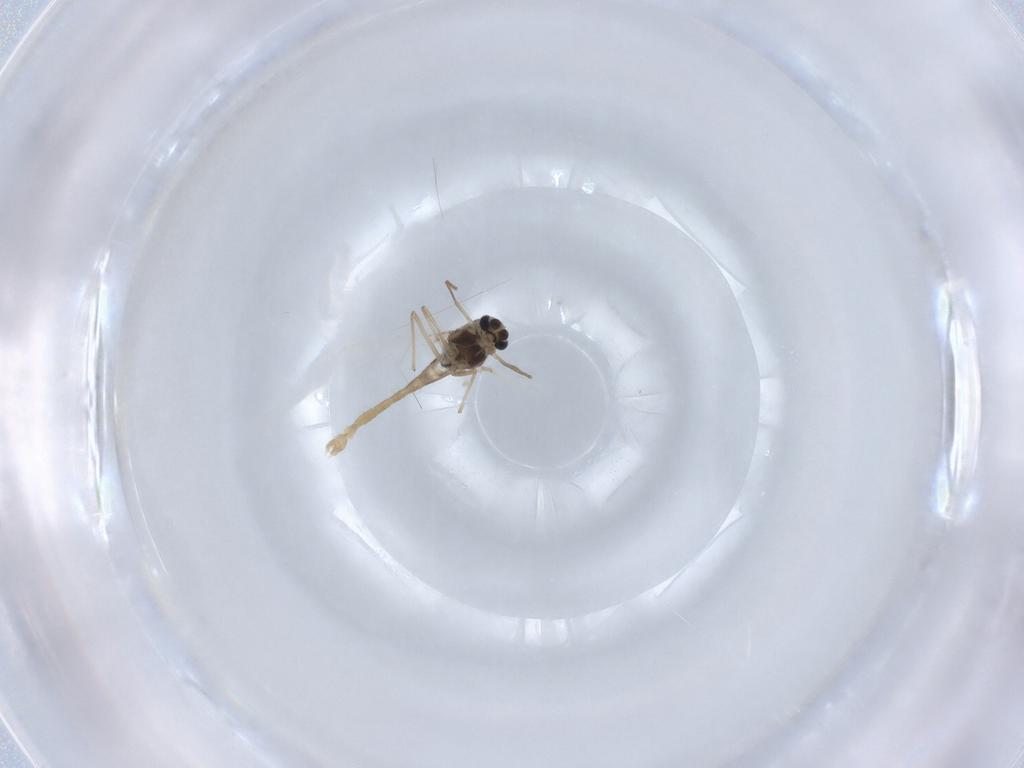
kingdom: Animalia
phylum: Arthropoda
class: Insecta
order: Diptera
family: Chironomidae
